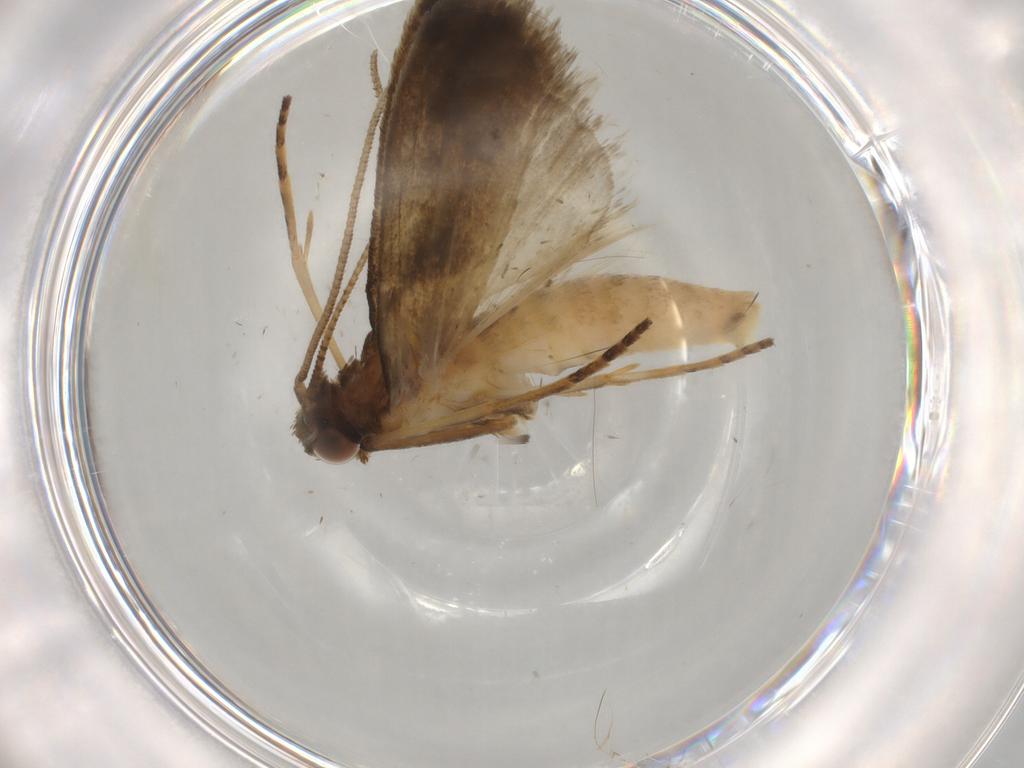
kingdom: Animalia
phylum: Arthropoda
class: Insecta
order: Lepidoptera
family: Noctuidae
